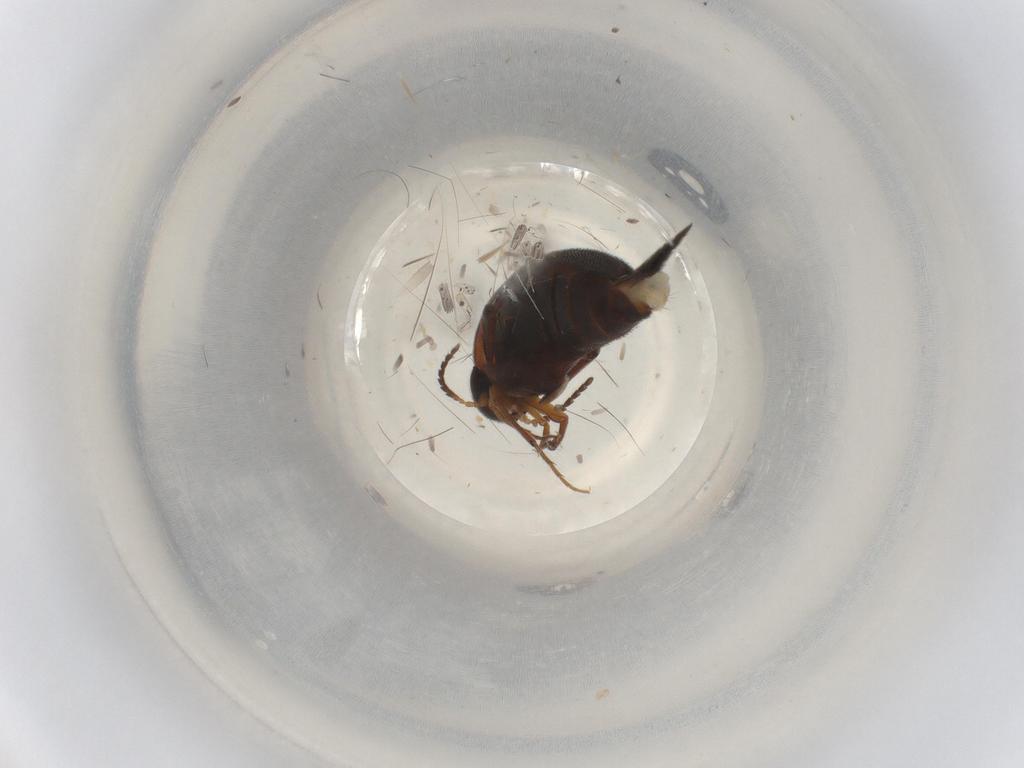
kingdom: Animalia
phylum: Arthropoda
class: Insecta
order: Coleoptera
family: Mordellidae
